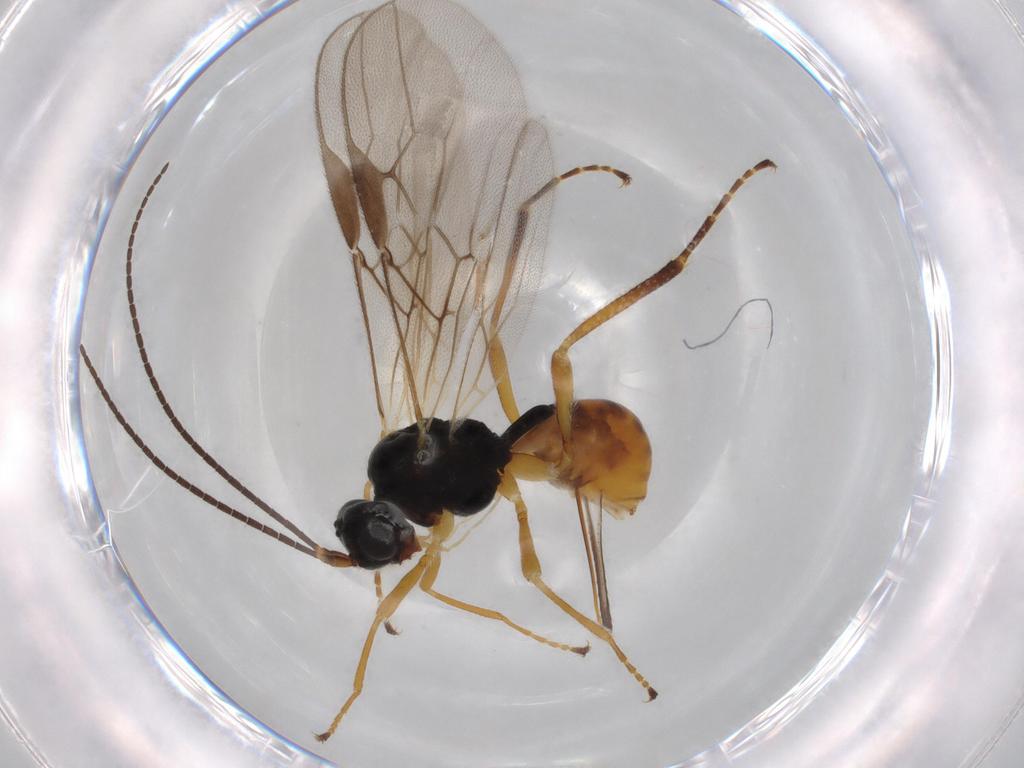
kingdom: Animalia
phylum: Arthropoda
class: Insecta
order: Hymenoptera
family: Braconidae
